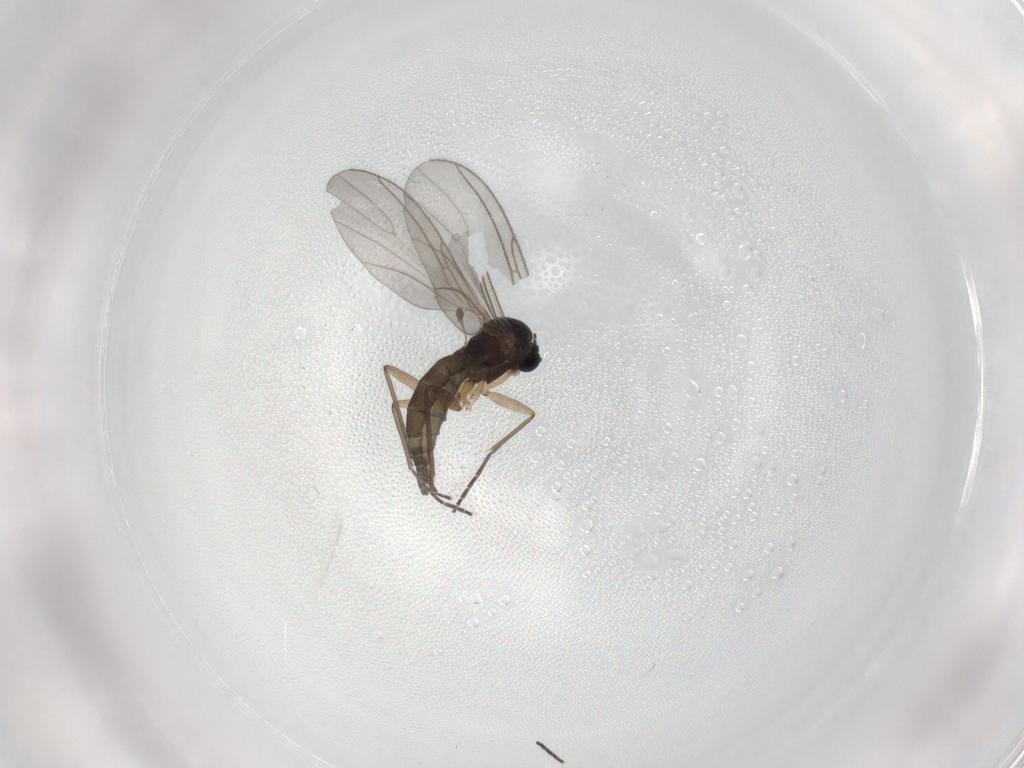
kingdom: Animalia
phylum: Arthropoda
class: Insecta
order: Diptera
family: Sciaridae
